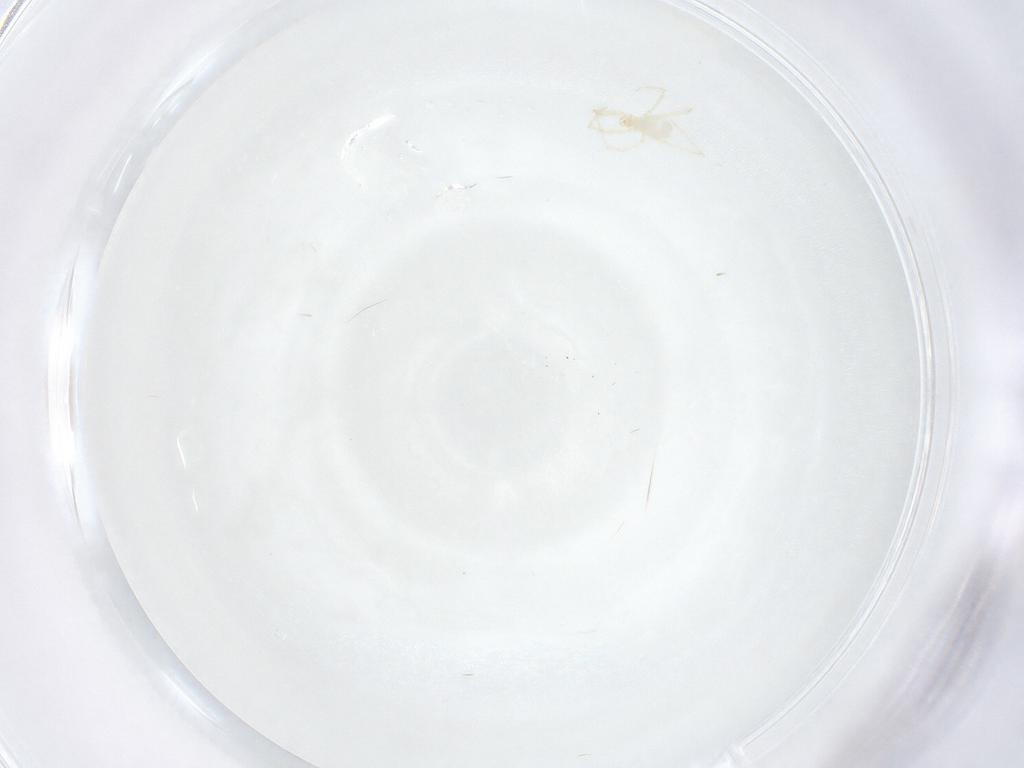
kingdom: Animalia
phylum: Arthropoda
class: Arachnida
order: Trombidiformes
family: Erythraeidae
